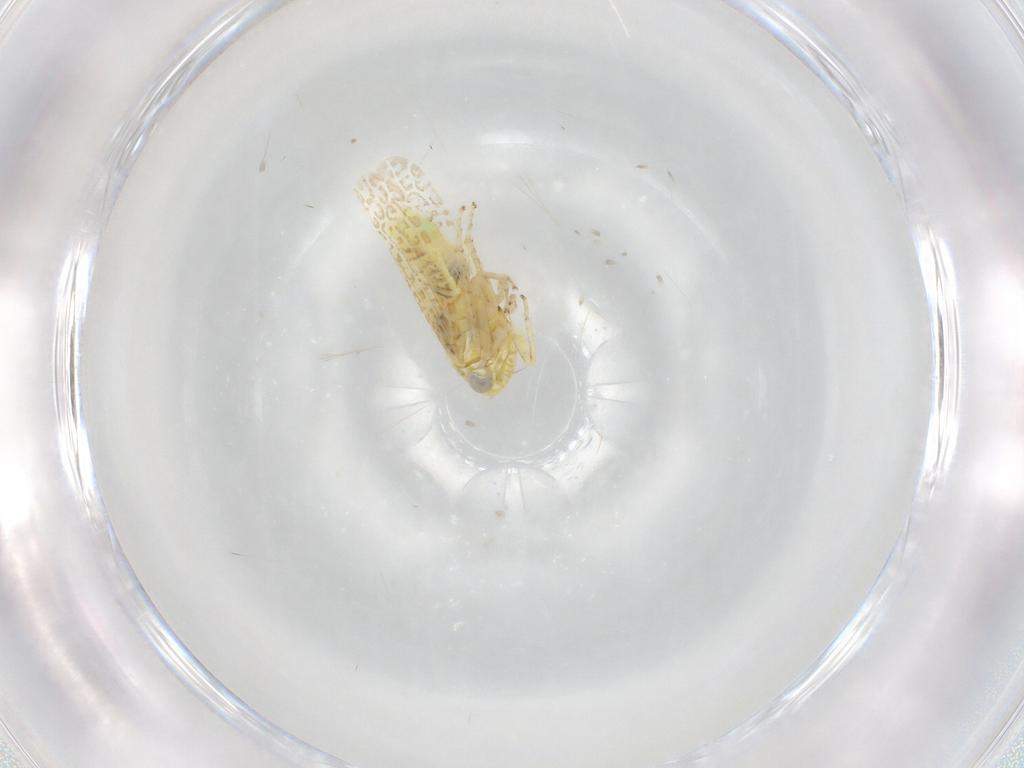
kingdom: Animalia
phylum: Arthropoda
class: Insecta
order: Hemiptera
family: Cicadellidae
